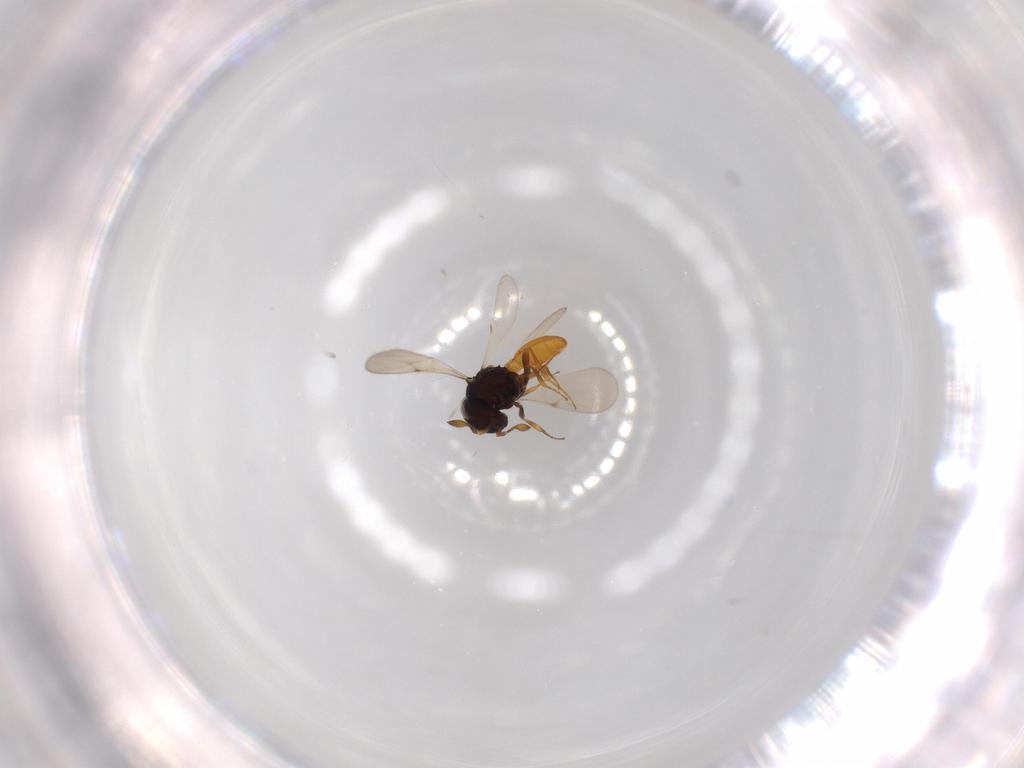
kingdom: Animalia
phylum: Arthropoda
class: Insecta
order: Hymenoptera
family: Scelionidae
